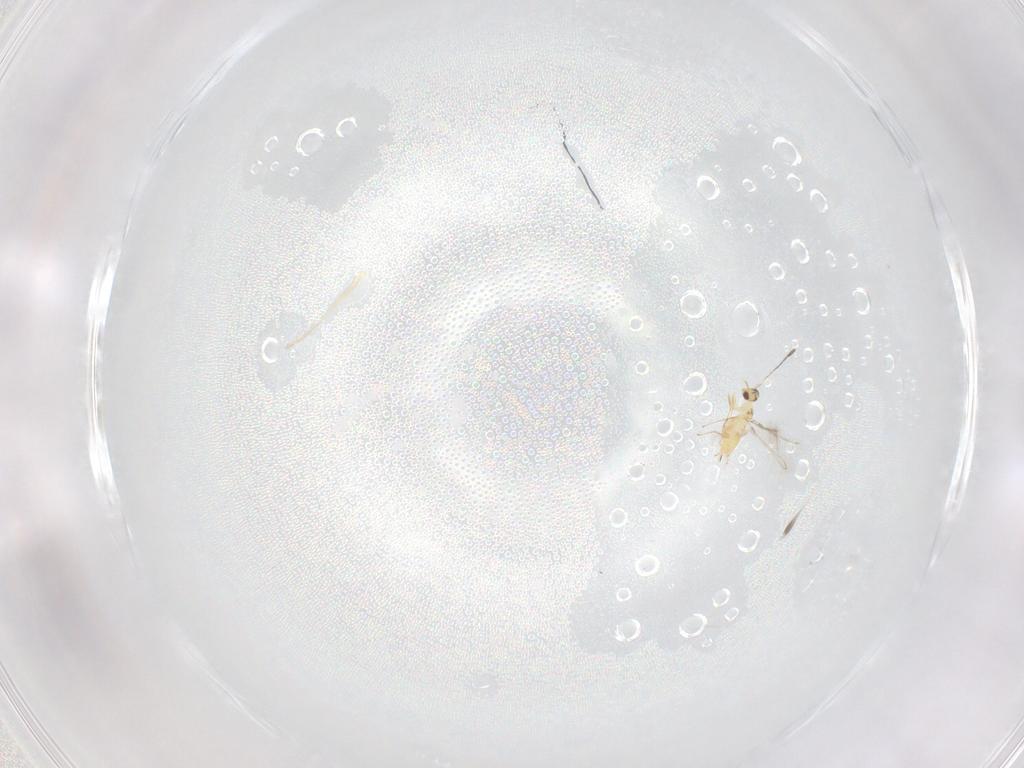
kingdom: Animalia
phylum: Arthropoda
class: Insecta
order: Hymenoptera
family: Mymaridae
